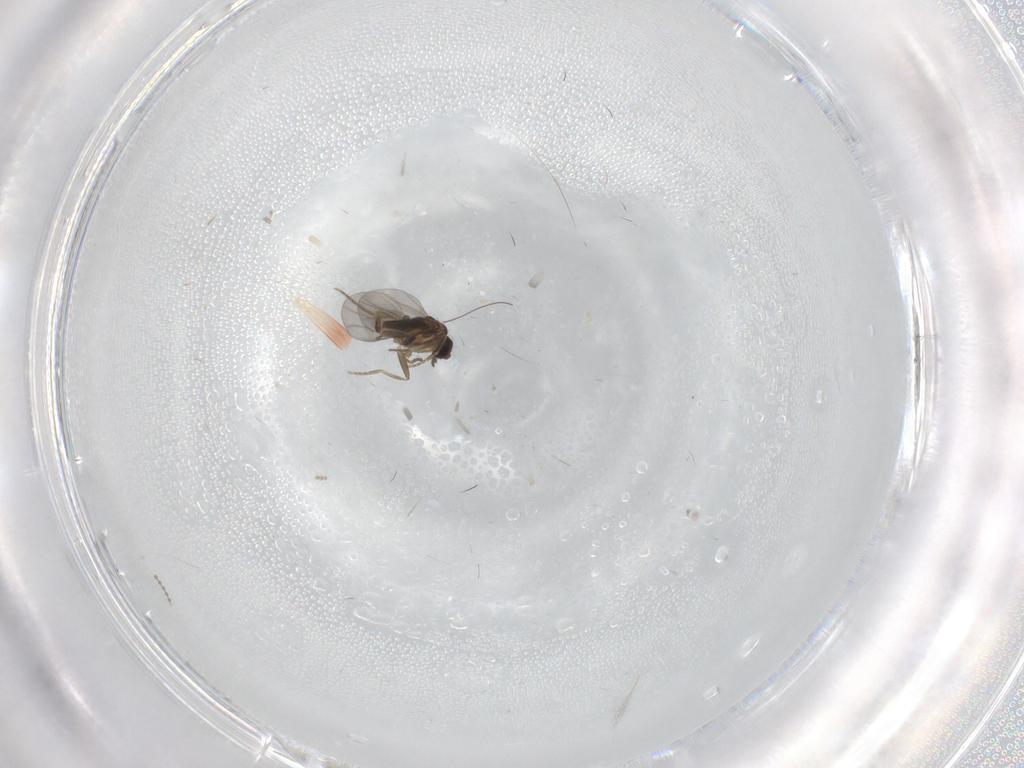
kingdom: Animalia
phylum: Arthropoda
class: Insecta
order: Diptera
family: Cecidomyiidae
